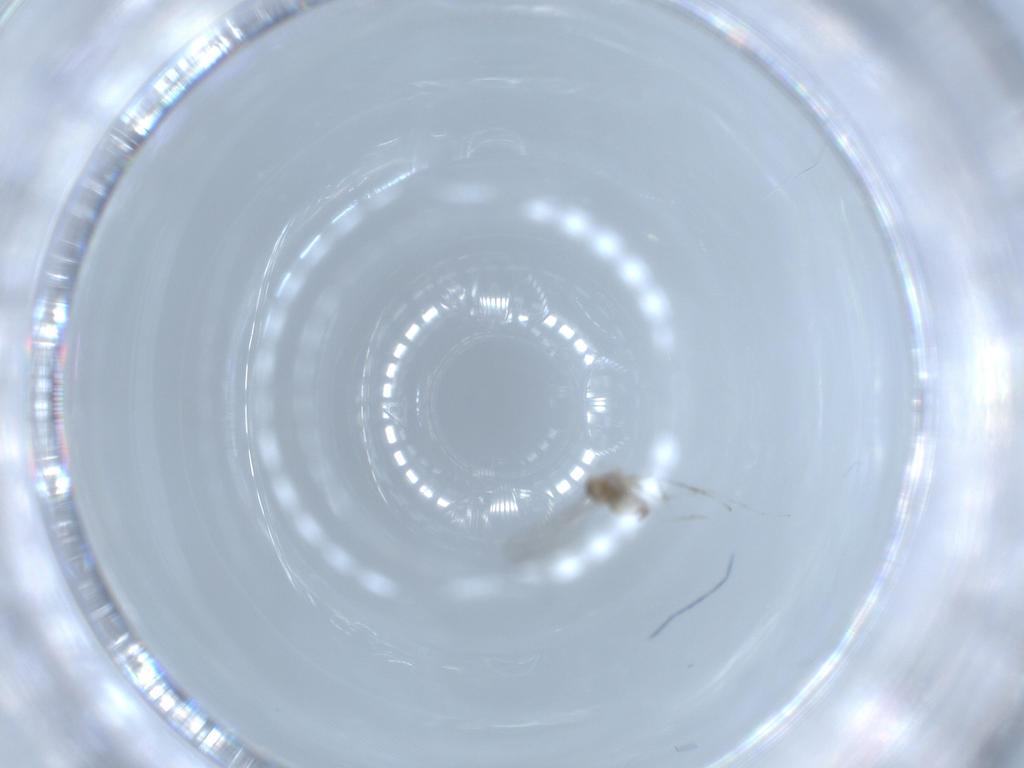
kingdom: Animalia
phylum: Arthropoda
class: Insecta
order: Diptera
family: Cecidomyiidae
